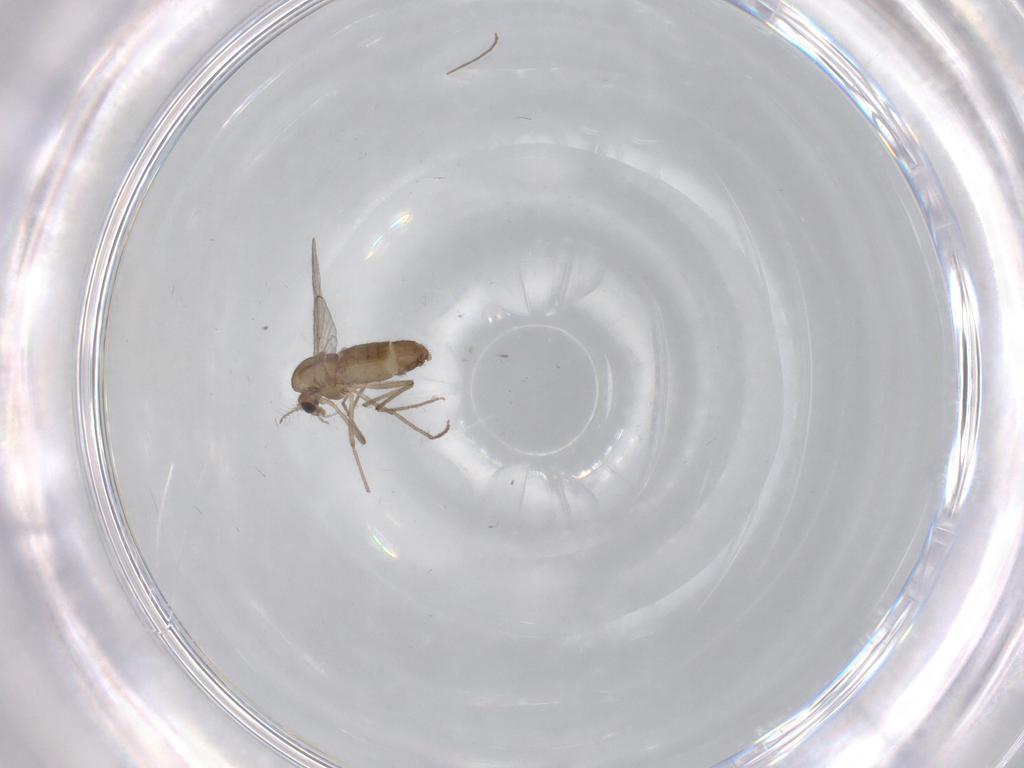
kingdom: Animalia
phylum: Arthropoda
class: Insecta
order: Diptera
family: Chironomidae
